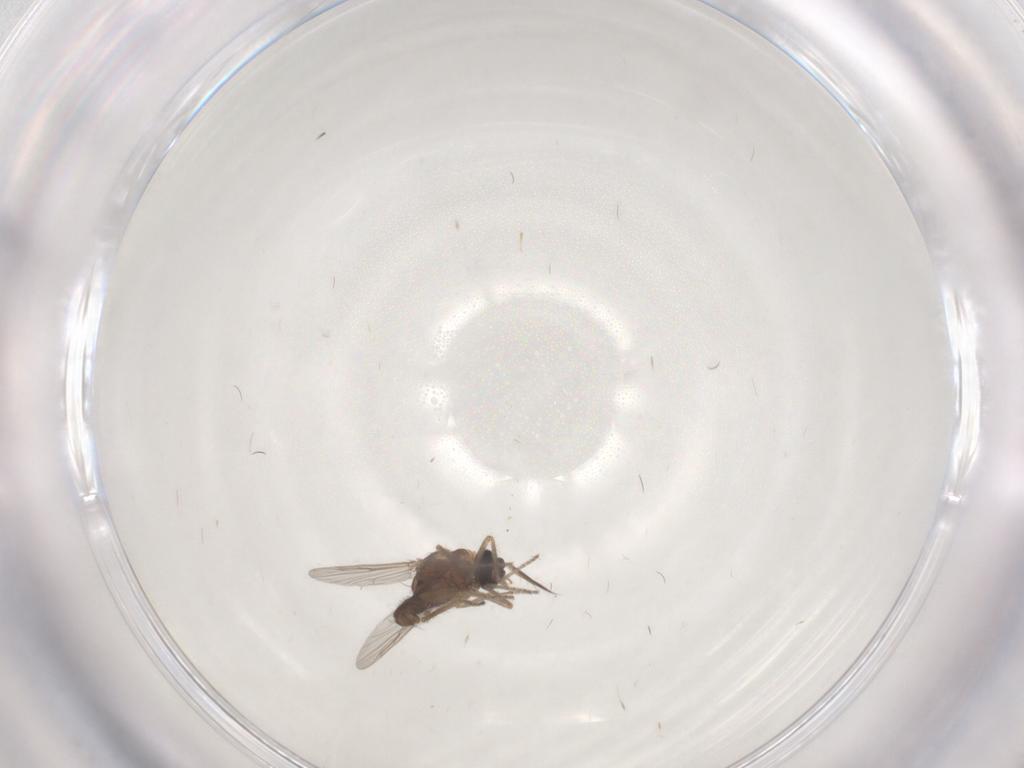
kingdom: Animalia
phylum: Arthropoda
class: Insecta
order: Diptera
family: Ceratopogonidae
